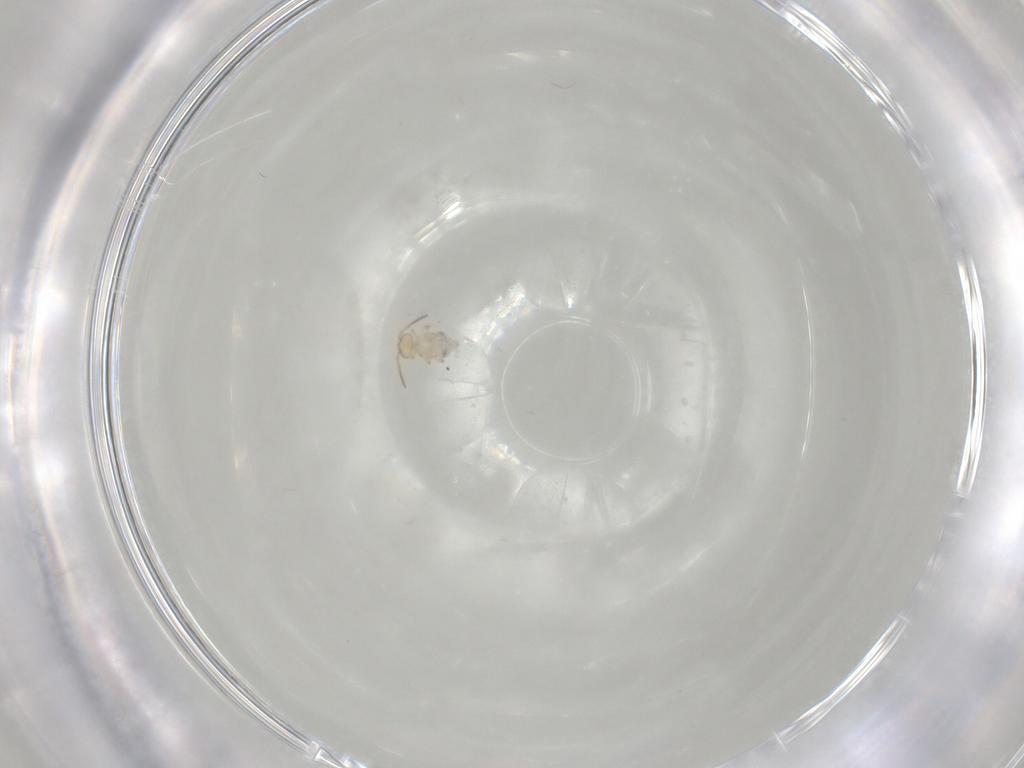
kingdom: Animalia
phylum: Arthropoda
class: Collembola
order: Symphypleona
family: Bourletiellidae
